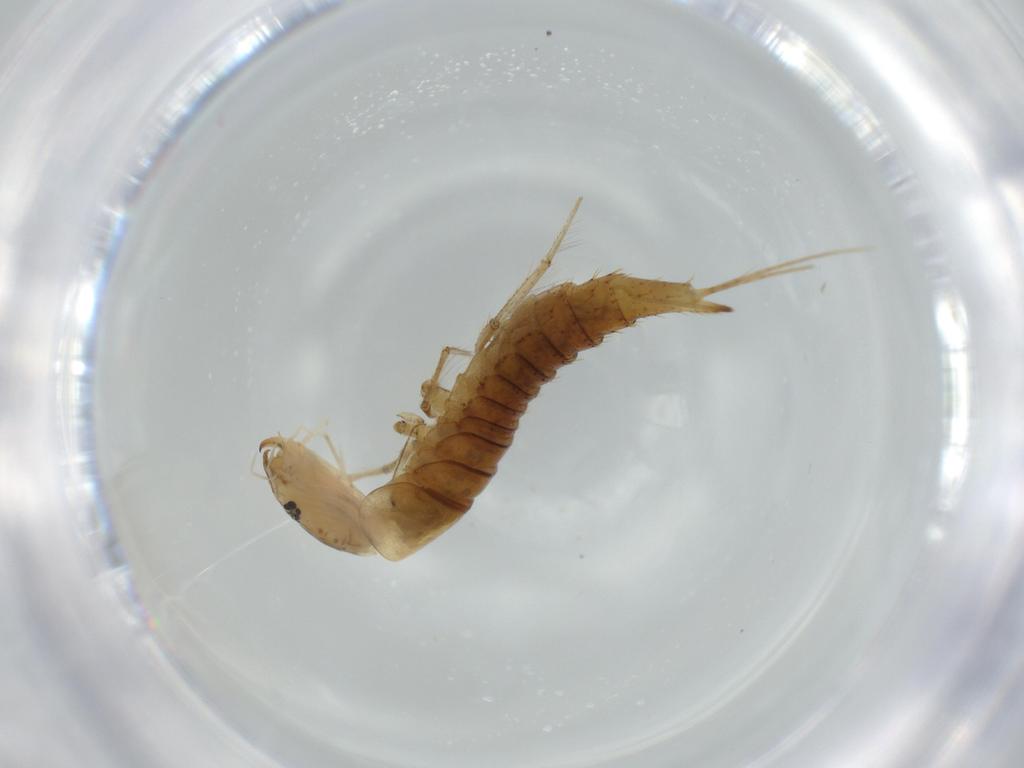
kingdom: Animalia
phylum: Arthropoda
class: Insecta
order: Coleoptera
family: Dytiscidae
